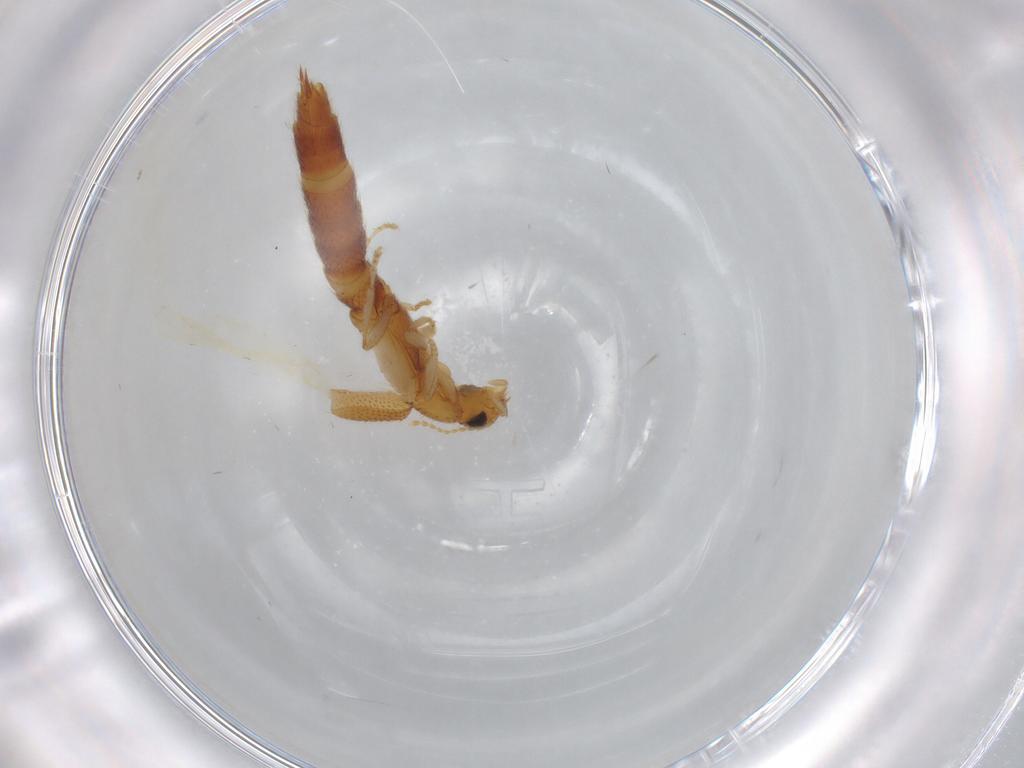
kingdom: Animalia
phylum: Arthropoda
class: Insecta
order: Coleoptera
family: Staphylinidae
